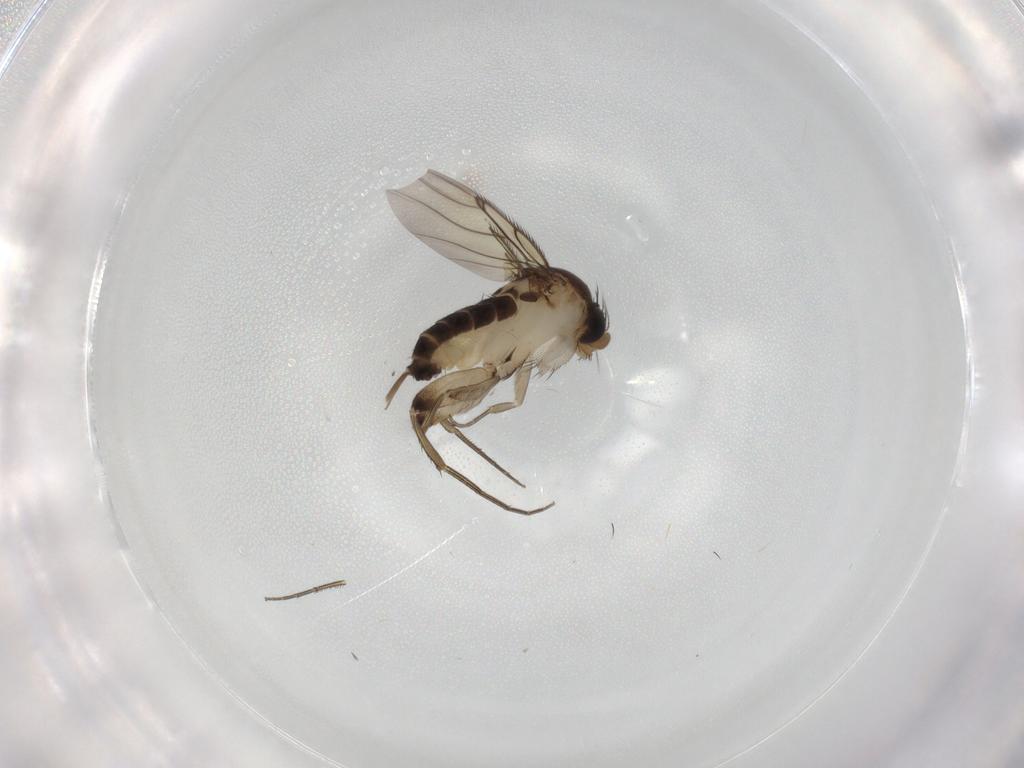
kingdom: Animalia
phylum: Arthropoda
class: Insecta
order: Diptera
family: Phoridae
